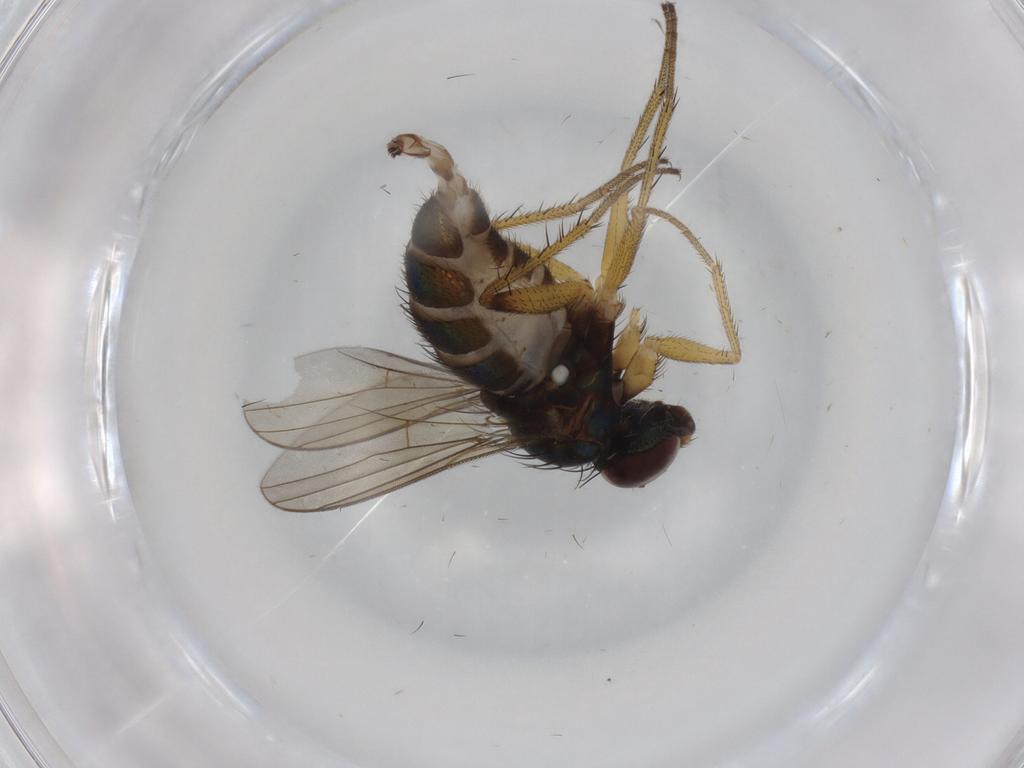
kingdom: Animalia
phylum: Arthropoda
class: Insecta
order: Diptera
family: Dolichopodidae
